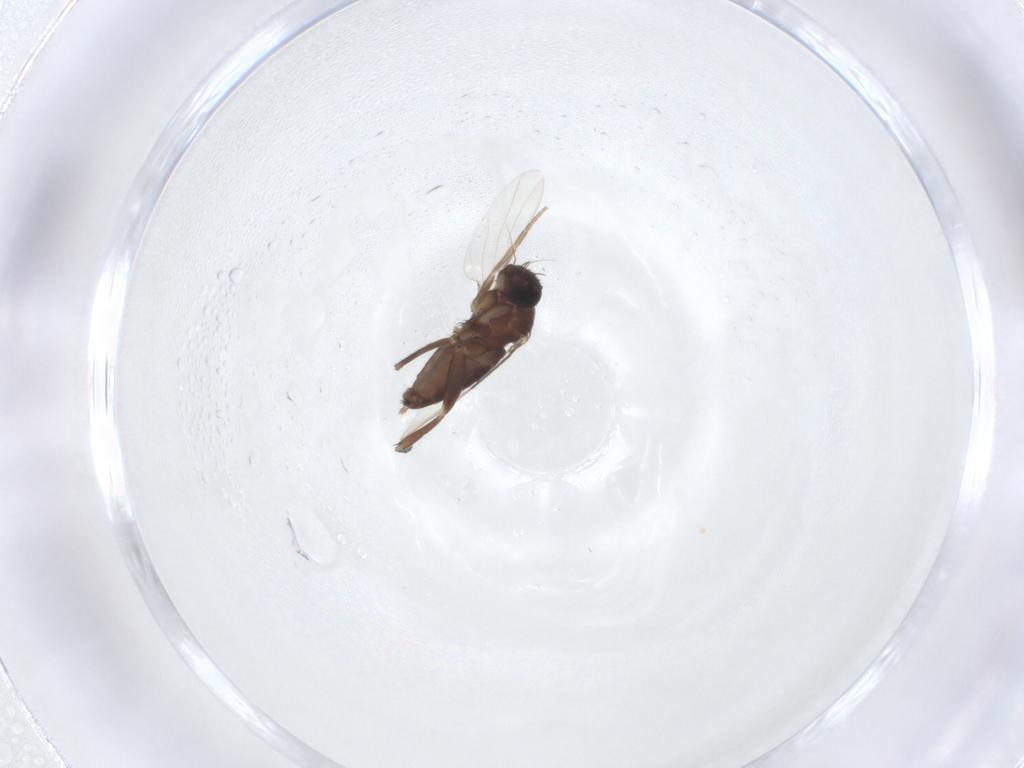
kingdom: Animalia
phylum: Arthropoda
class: Insecta
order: Diptera
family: Phoridae
